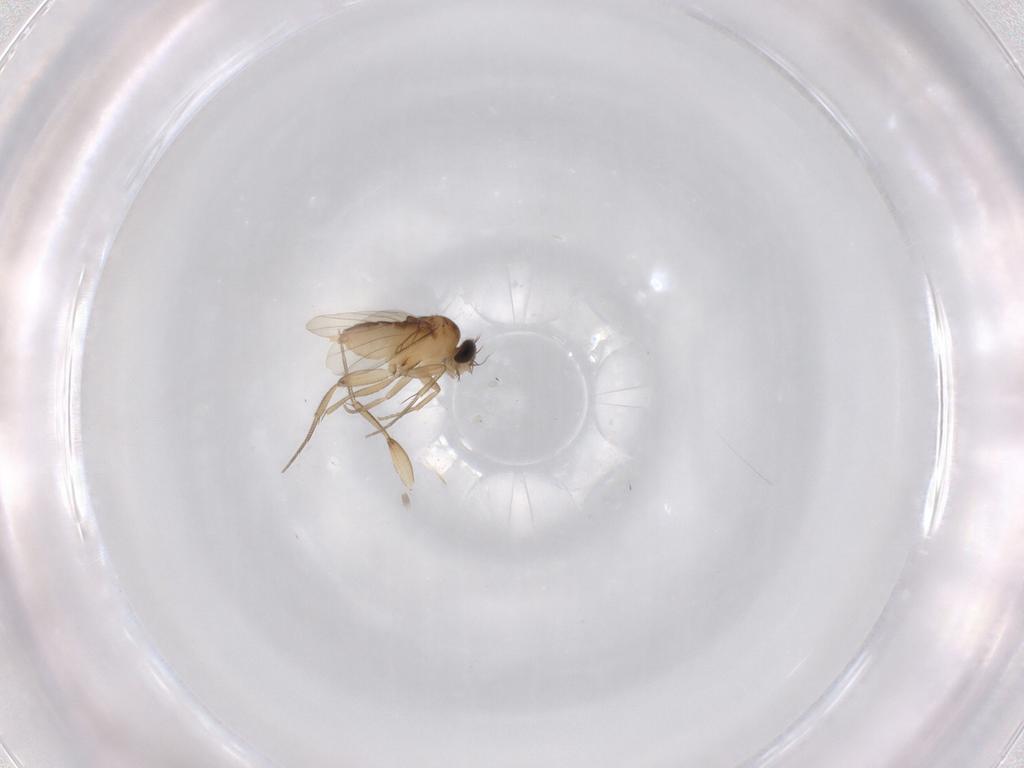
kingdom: Animalia
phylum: Arthropoda
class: Insecta
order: Diptera
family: Phoridae
